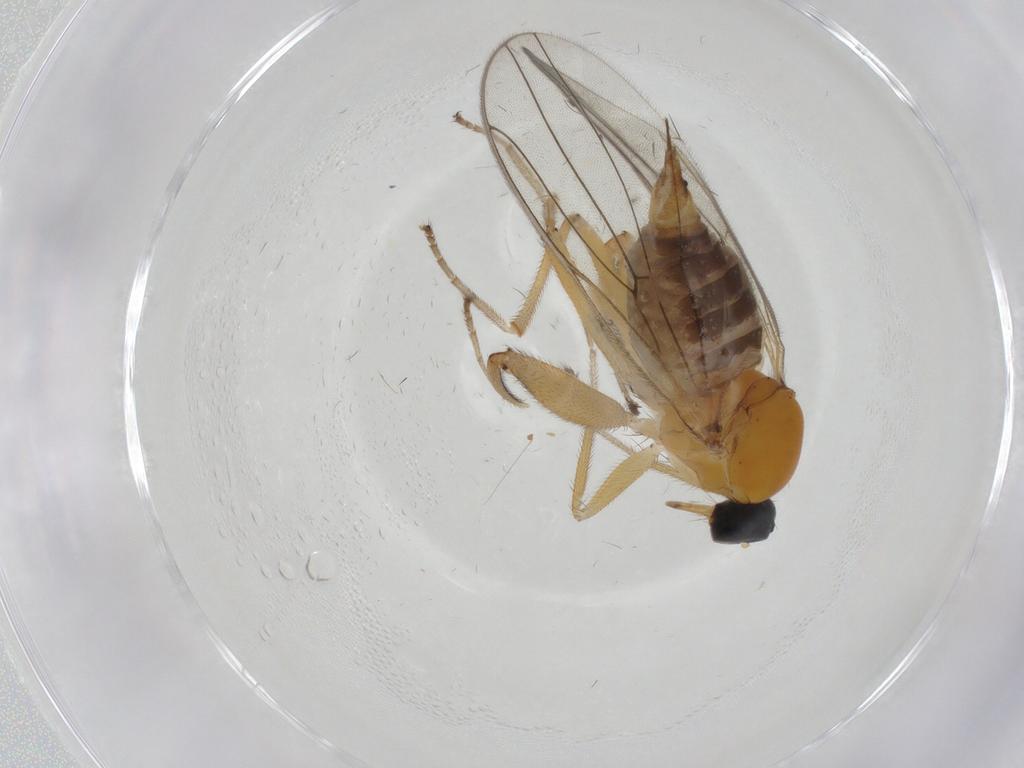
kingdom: Animalia
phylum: Arthropoda
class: Insecta
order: Diptera
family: Hybotidae
